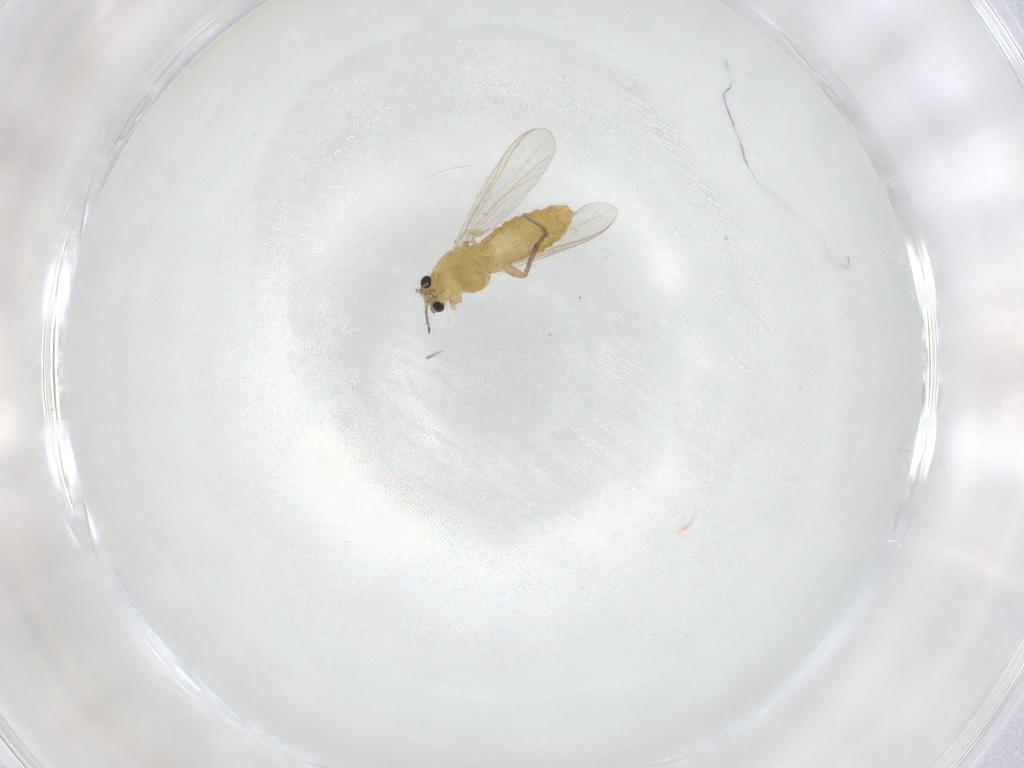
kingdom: Animalia
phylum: Arthropoda
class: Insecta
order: Diptera
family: Chironomidae
